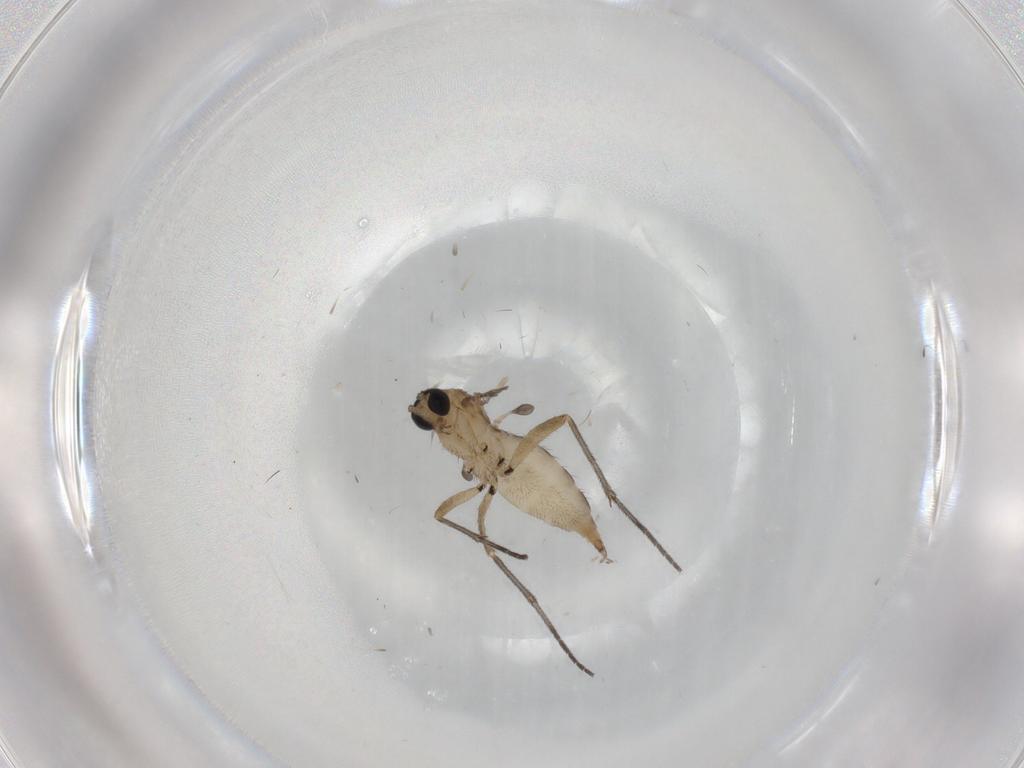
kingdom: Animalia
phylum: Arthropoda
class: Insecta
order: Diptera
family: Sciaridae
